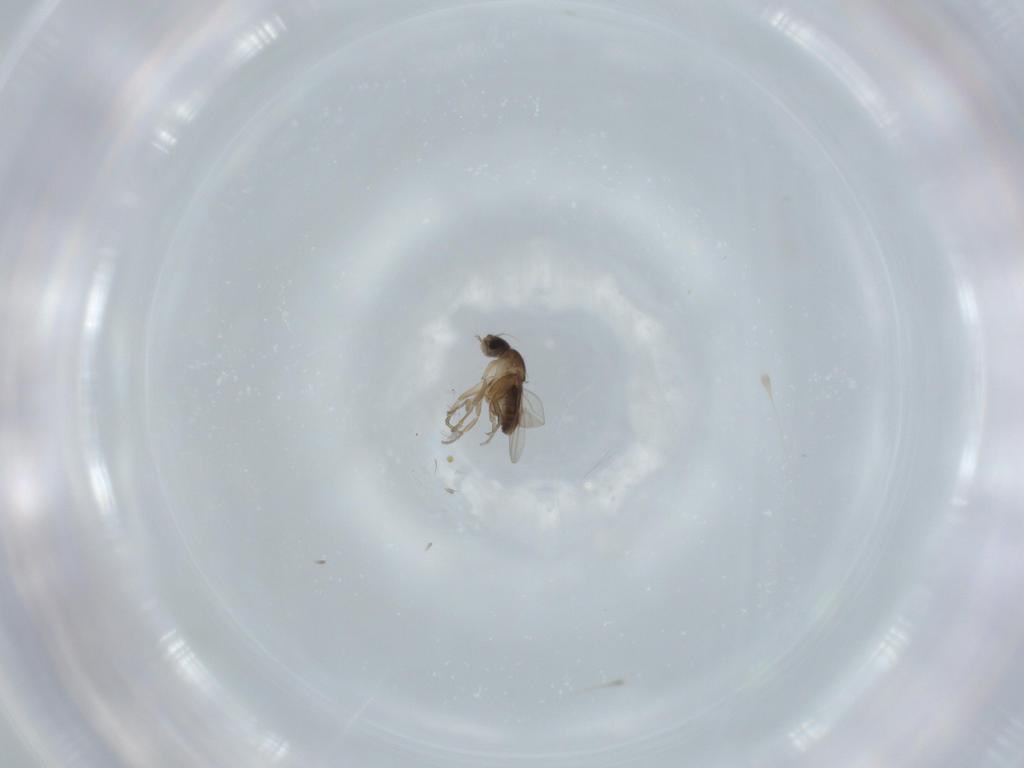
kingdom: Animalia
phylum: Arthropoda
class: Insecta
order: Diptera
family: Phoridae
